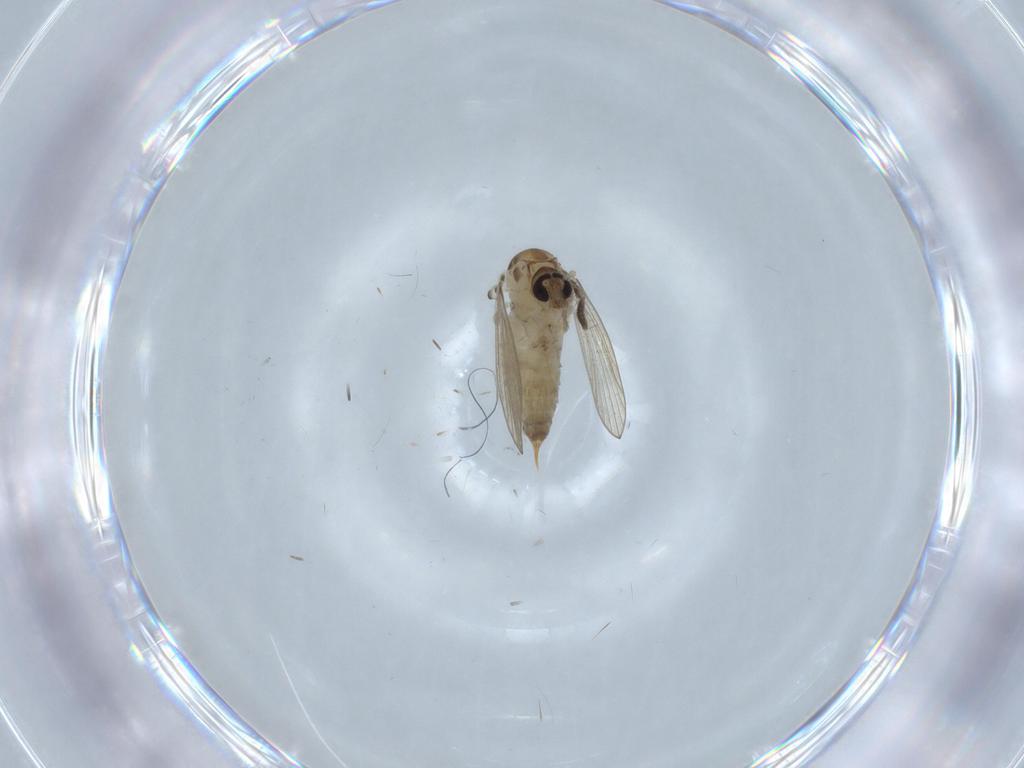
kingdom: Animalia
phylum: Arthropoda
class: Insecta
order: Diptera
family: Psychodidae
